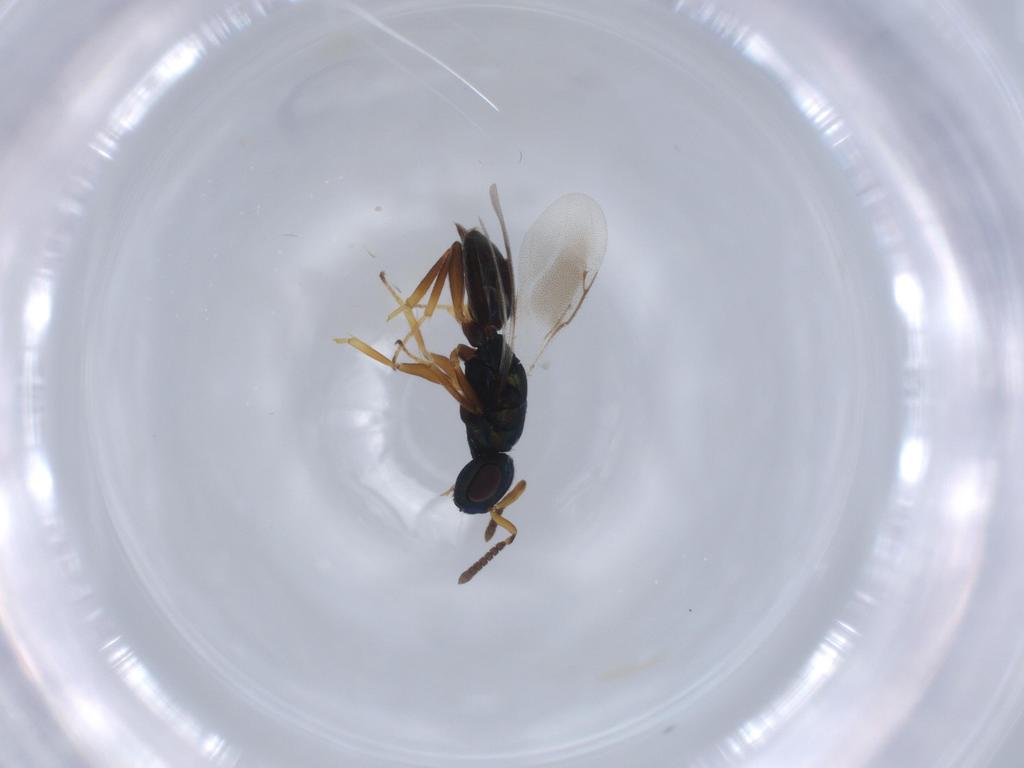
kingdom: Animalia
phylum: Arthropoda
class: Insecta
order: Hymenoptera
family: Pteromalidae
